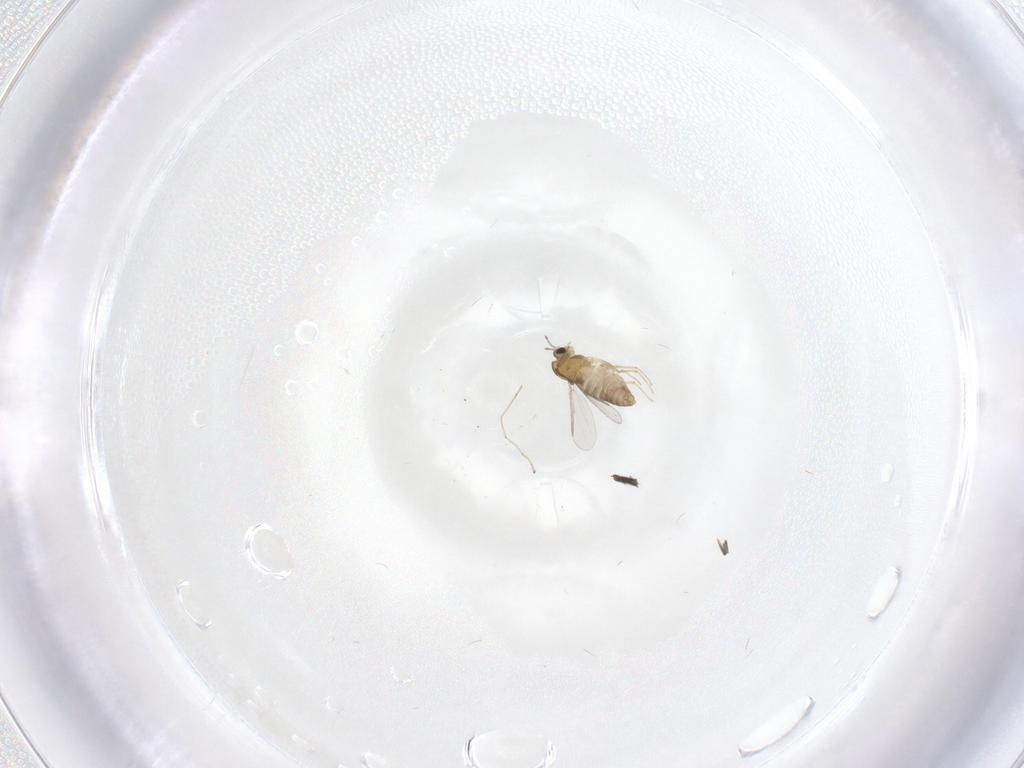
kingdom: Animalia
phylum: Arthropoda
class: Insecta
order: Diptera
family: Chironomidae
